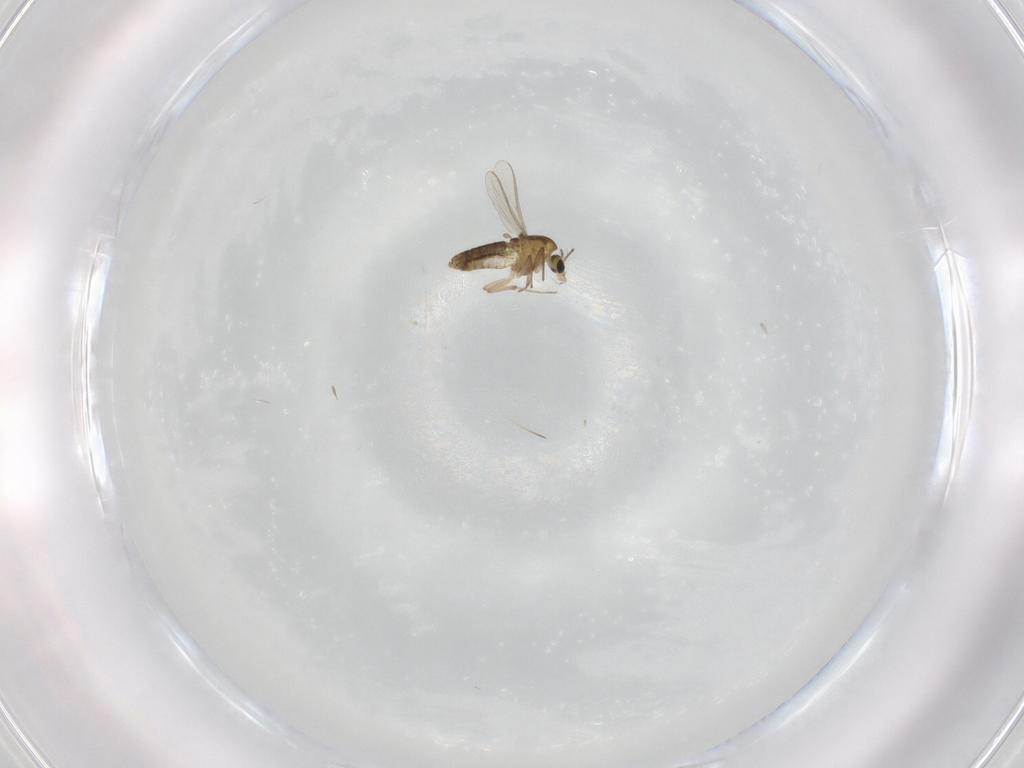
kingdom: Animalia
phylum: Arthropoda
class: Insecta
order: Diptera
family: Chironomidae
